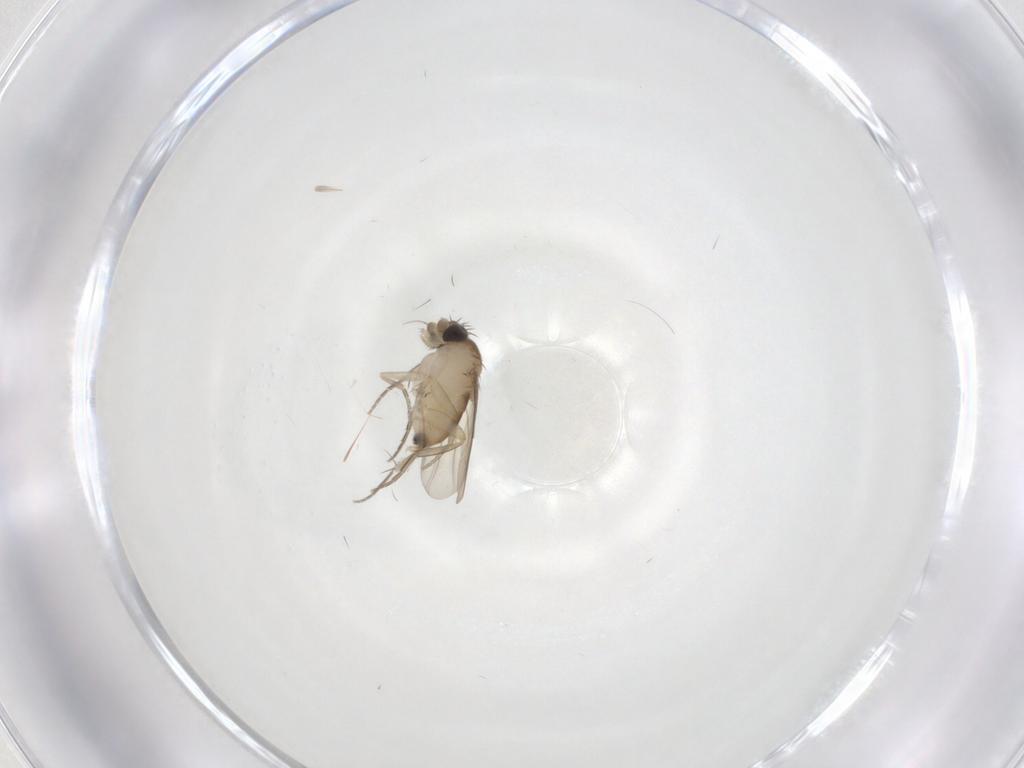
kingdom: Animalia
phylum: Arthropoda
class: Insecta
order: Diptera
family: Phoridae
